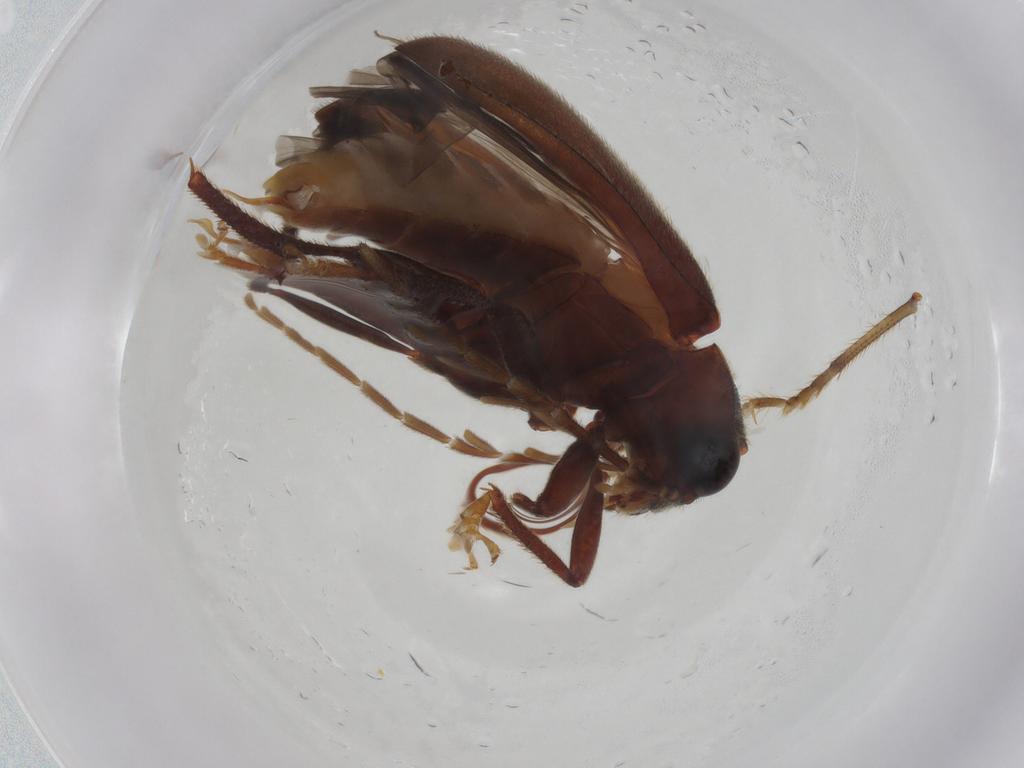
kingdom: Animalia
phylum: Arthropoda
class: Insecta
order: Coleoptera
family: Ptilodactylidae
